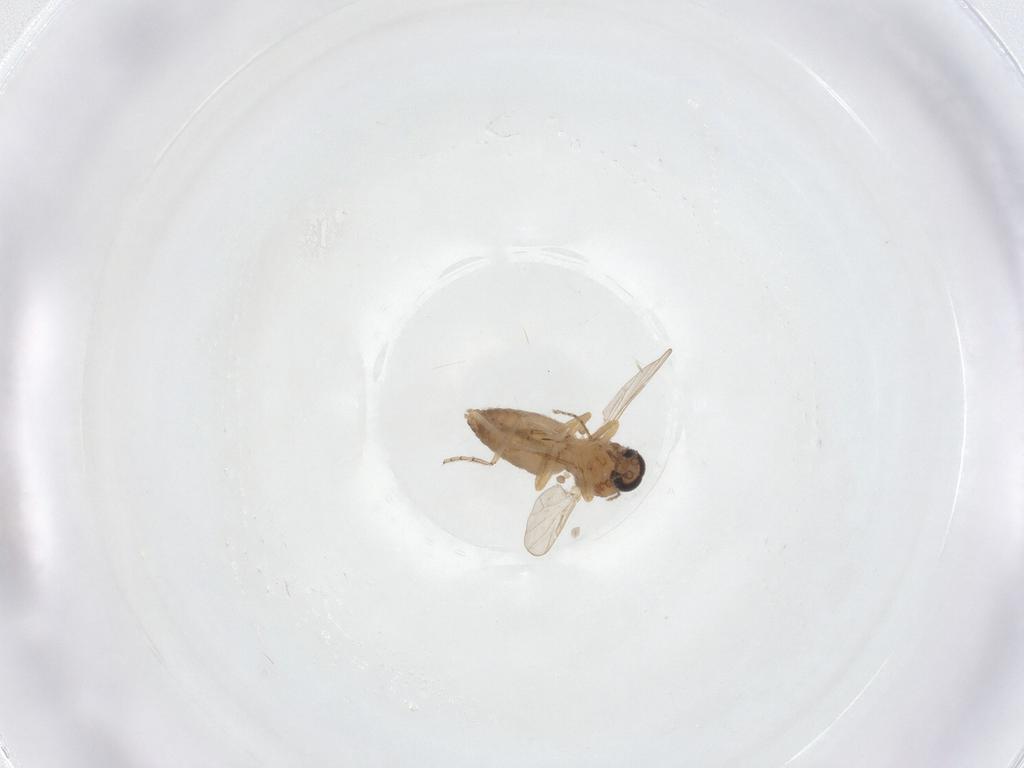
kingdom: Animalia
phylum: Arthropoda
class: Insecta
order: Diptera
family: Ceratopogonidae
